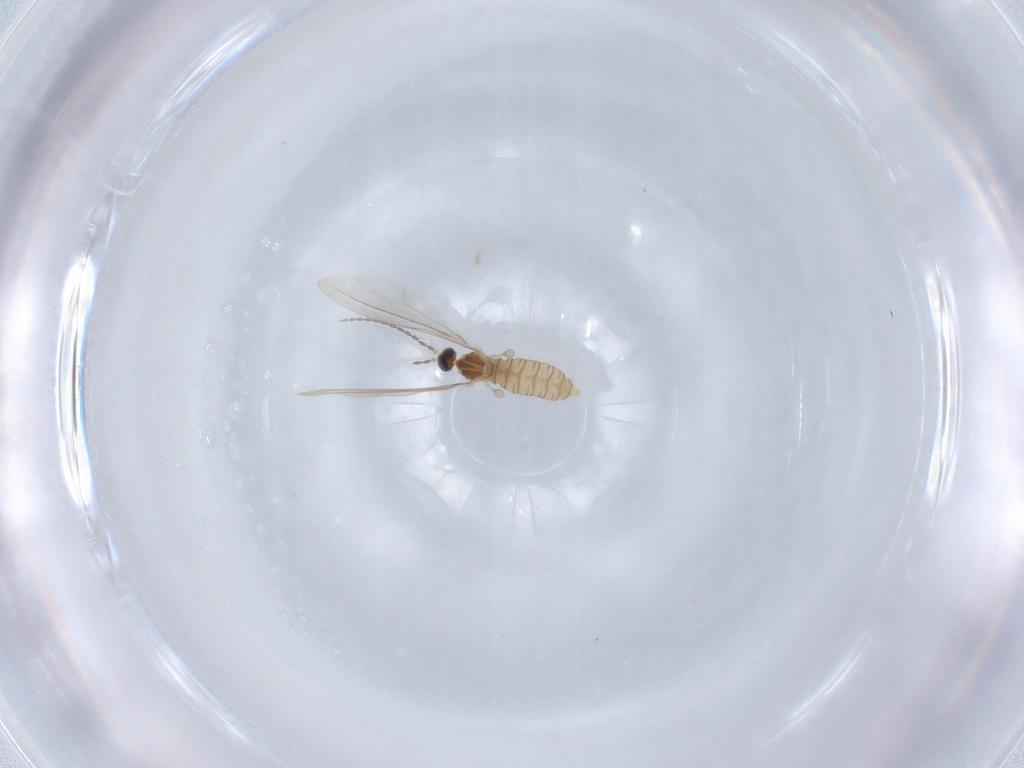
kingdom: Animalia
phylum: Arthropoda
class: Insecta
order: Diptera
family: Cecidomyiidae
